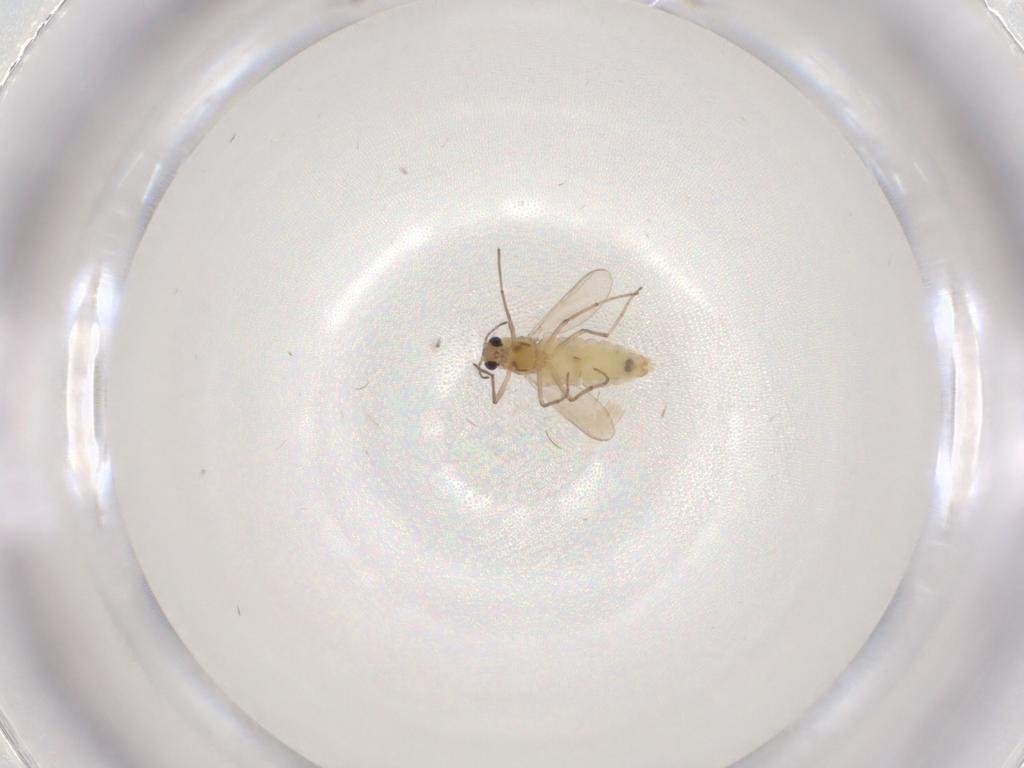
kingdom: Animalia
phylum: Arthropoda
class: Insecta
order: Diptera
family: Chironomidae
